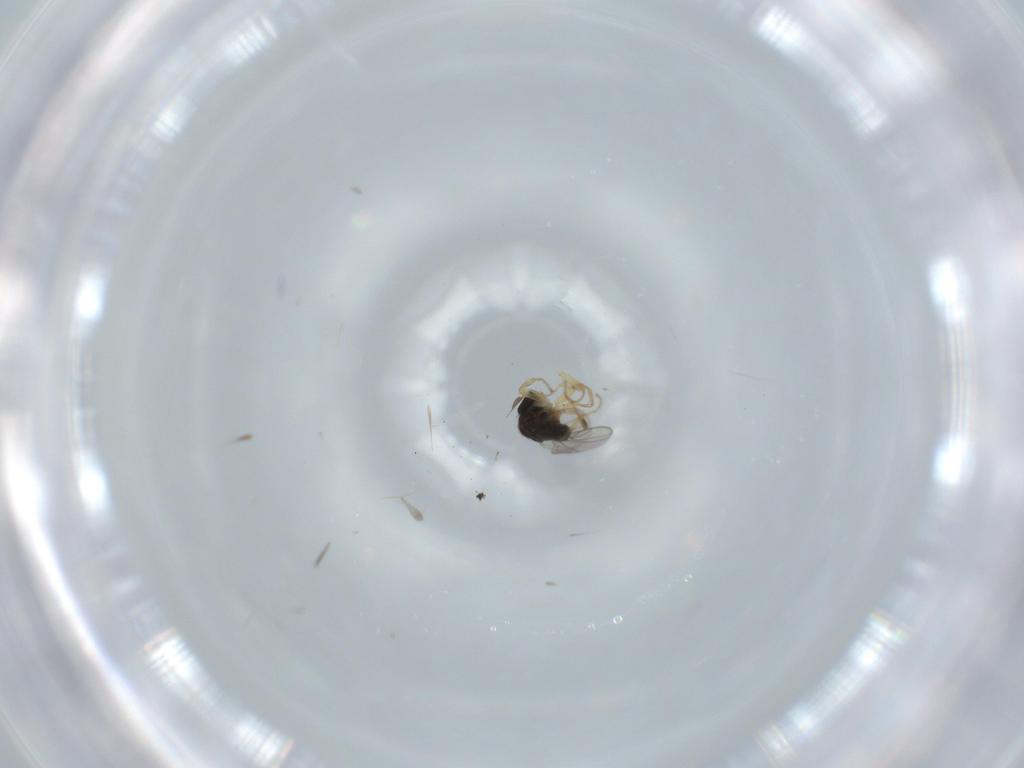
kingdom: Animalia
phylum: Arthropoda
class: Insecta
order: Diptera
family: Hybotidae
